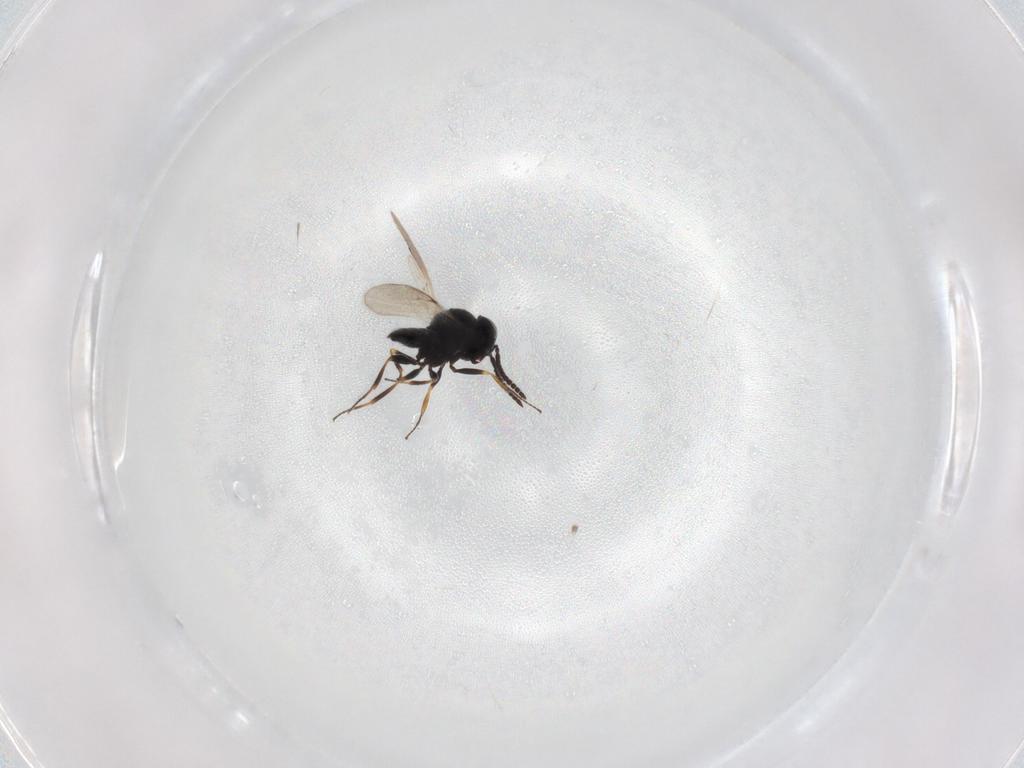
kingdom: Animalia
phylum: Arthropoda
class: Insecta
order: Hymenoptera
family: Scelionidae
